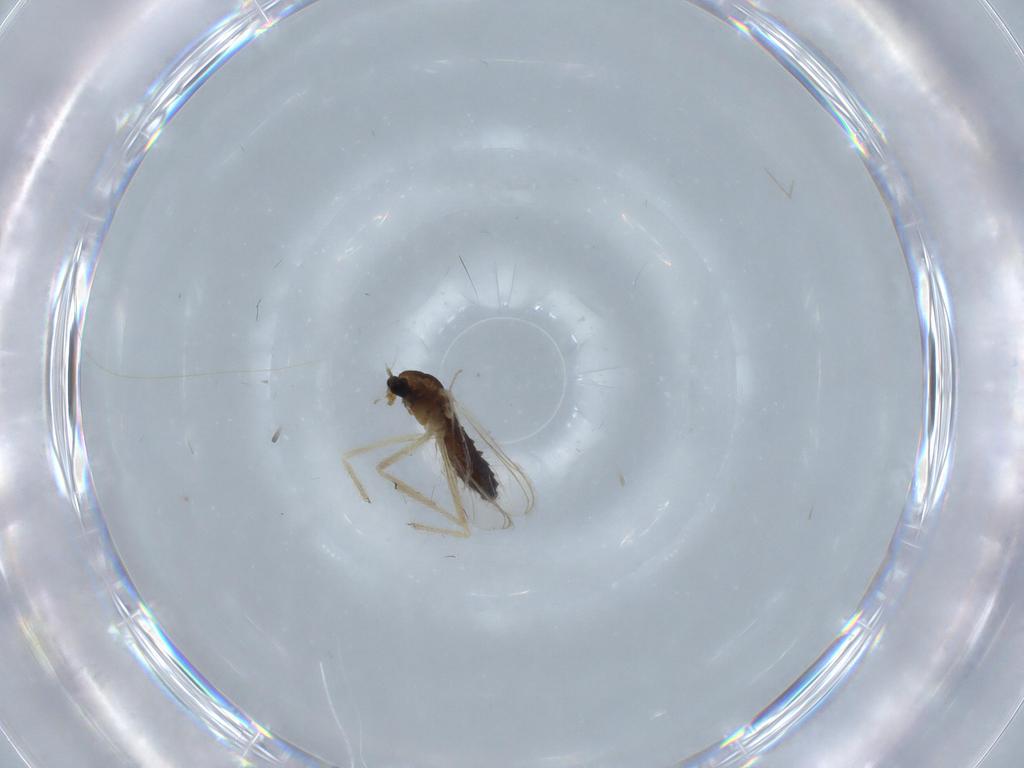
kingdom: Animalia
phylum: Arthropoda
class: Insecta
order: Diptera
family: Chironomidae
